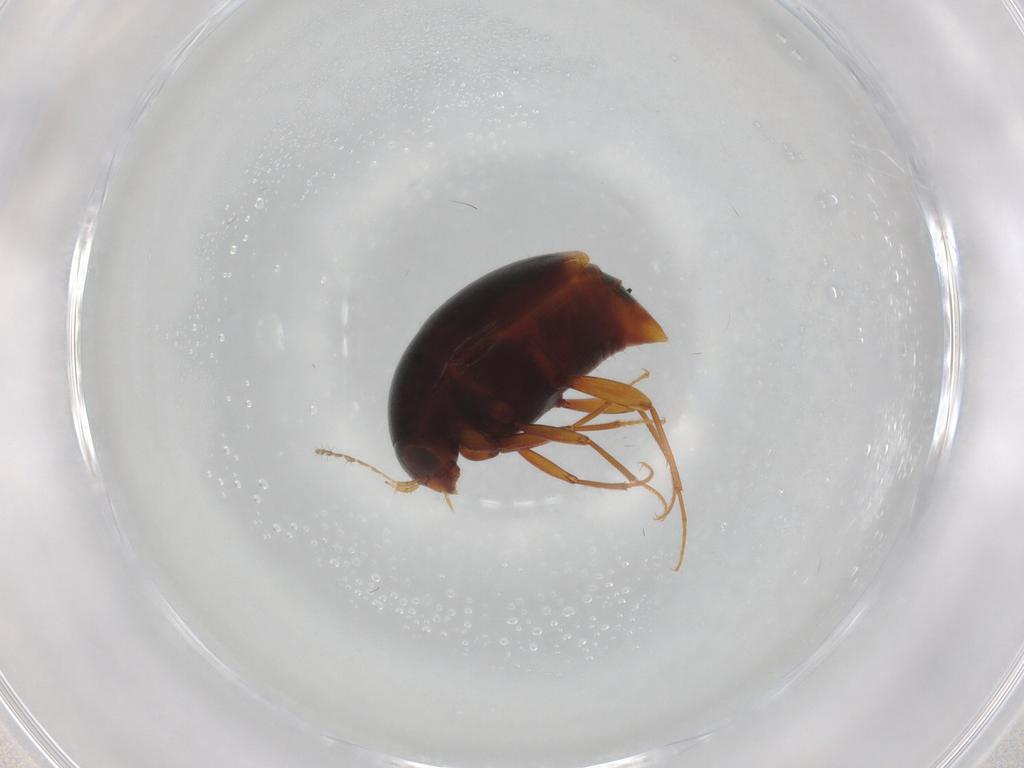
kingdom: Animalia
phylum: Arthropoda
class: Insecta
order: Coleoptera
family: Staphylinidae
